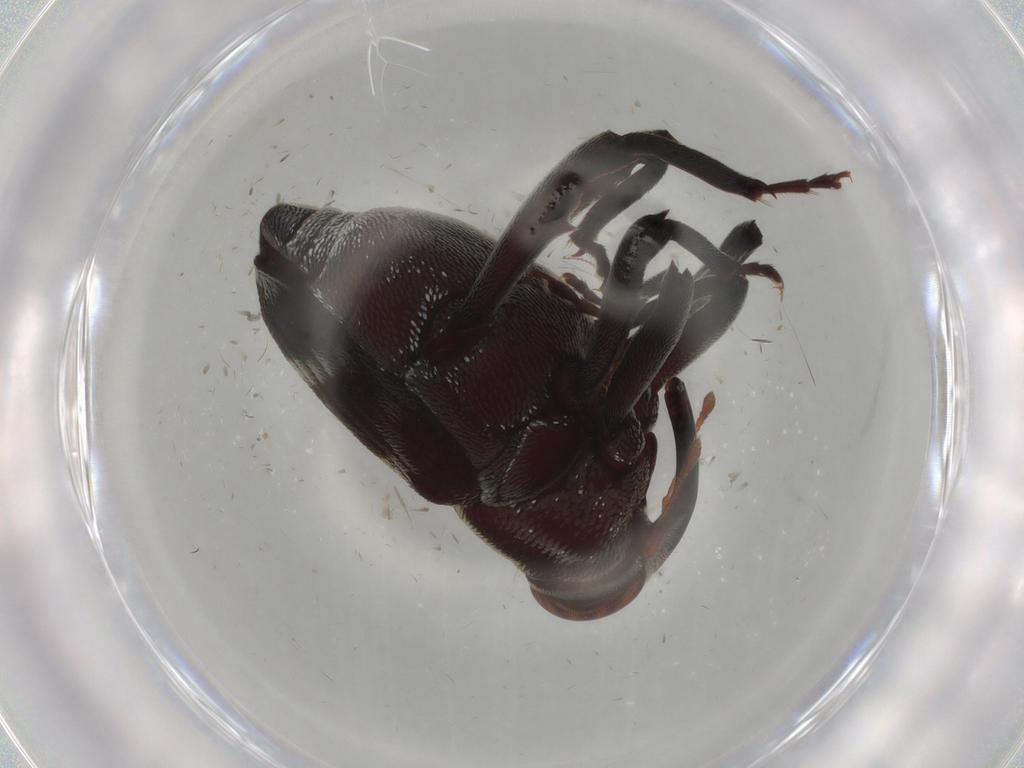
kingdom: Animalia
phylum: Arthropoda
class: Insecta
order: Coleoptera
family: Curculionidae
